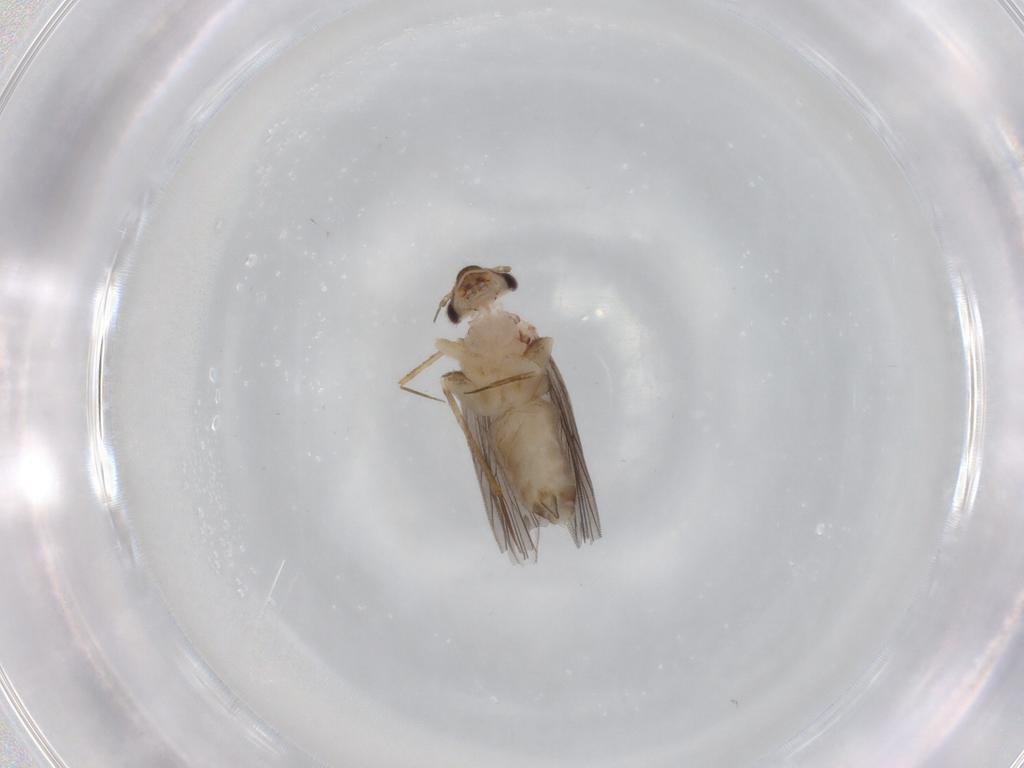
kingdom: Animalia
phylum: Arthropoda
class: Insecta
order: Psocodea
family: Lepidopsocidae
